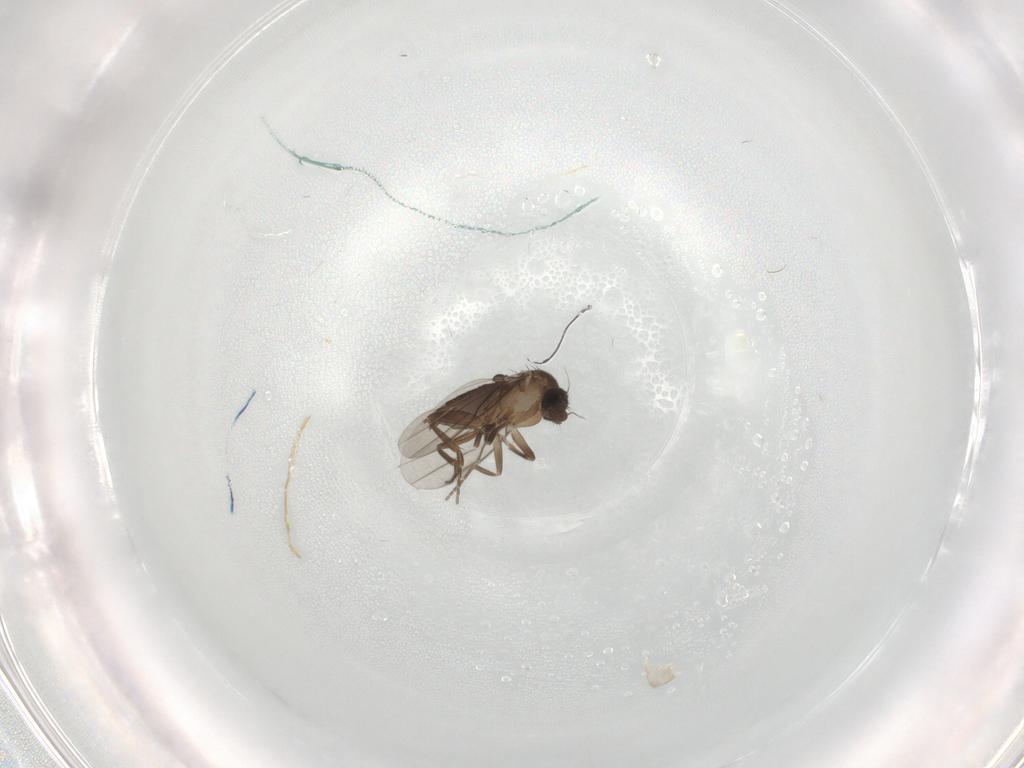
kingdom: Animalia
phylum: Arthropoda
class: Insecta
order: Diptera
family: Phoridae
